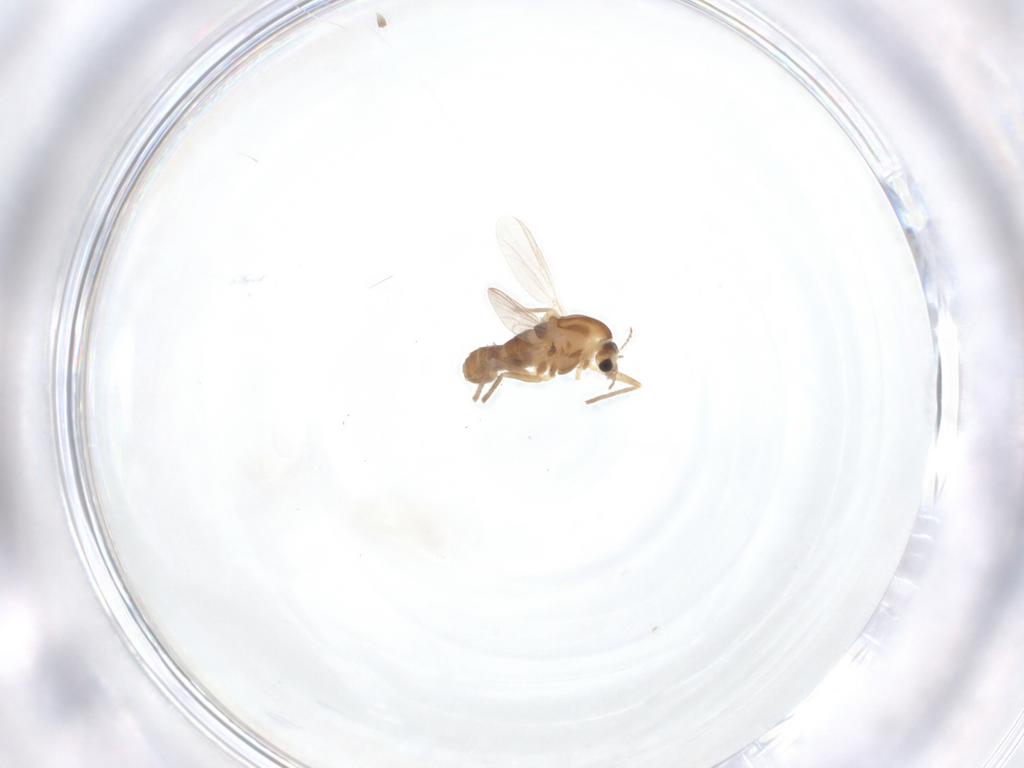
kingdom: Animalia
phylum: Arthropoda
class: Insecta
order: Diptera
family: Chironomidae
